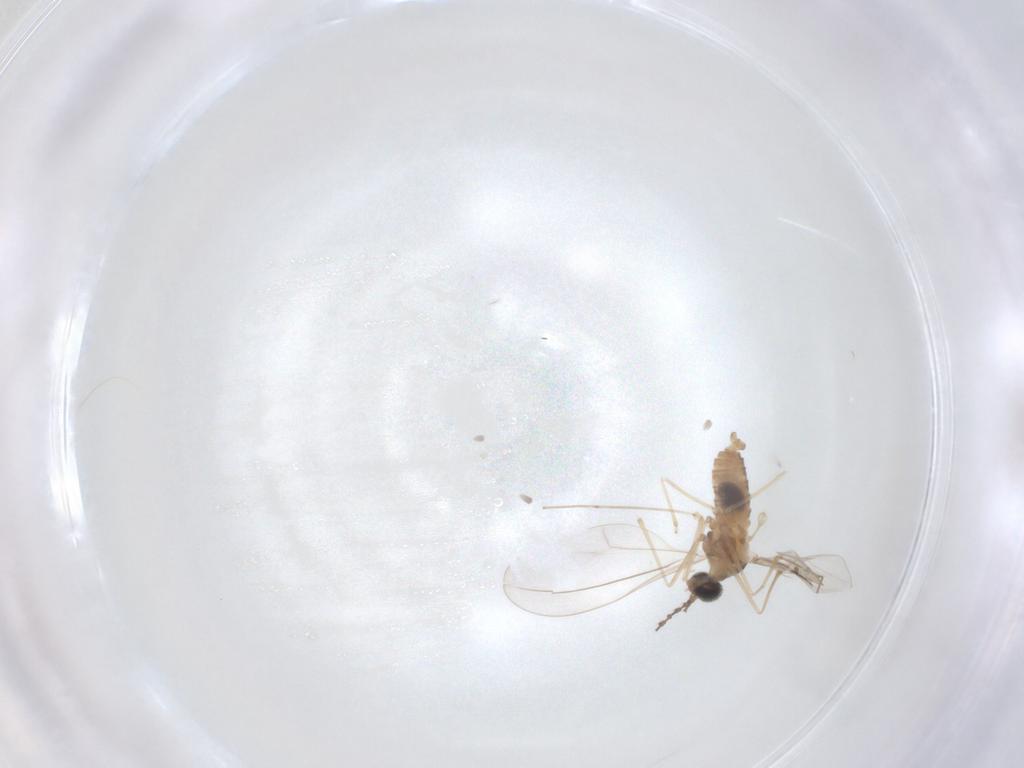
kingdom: Animalia
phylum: Arthropoda
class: Insecta
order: Diptera
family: Cecidomyiidae
